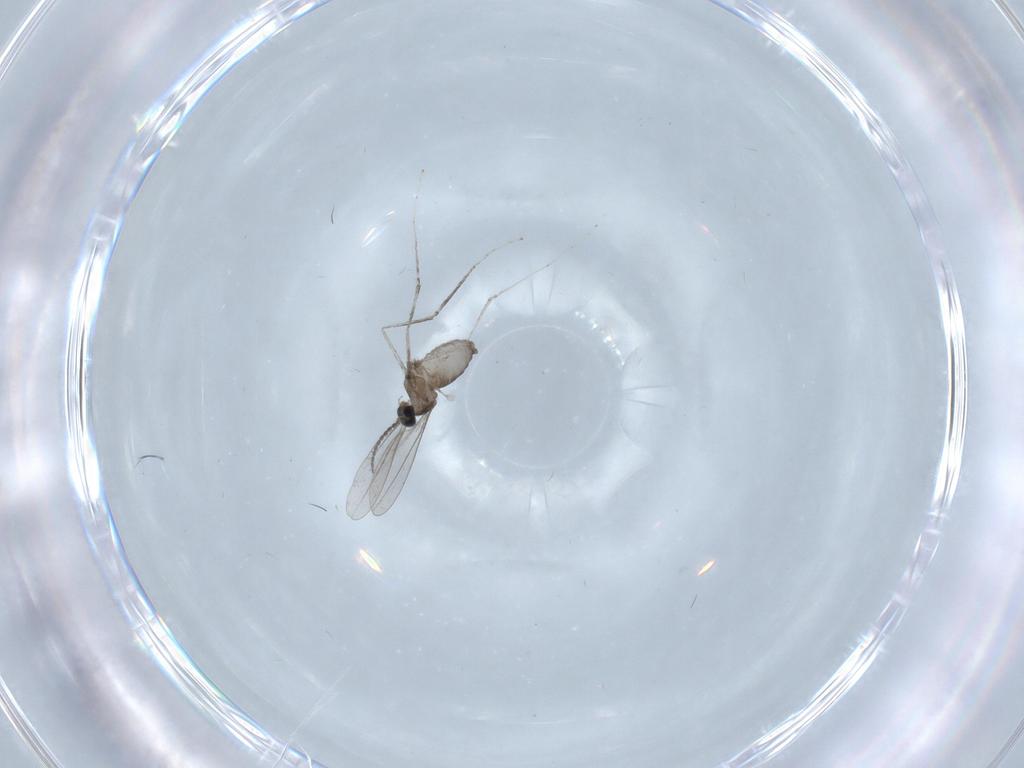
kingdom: Animalia
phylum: Arthropoda
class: Insecta
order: Diptera
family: Cecidomyiidae
